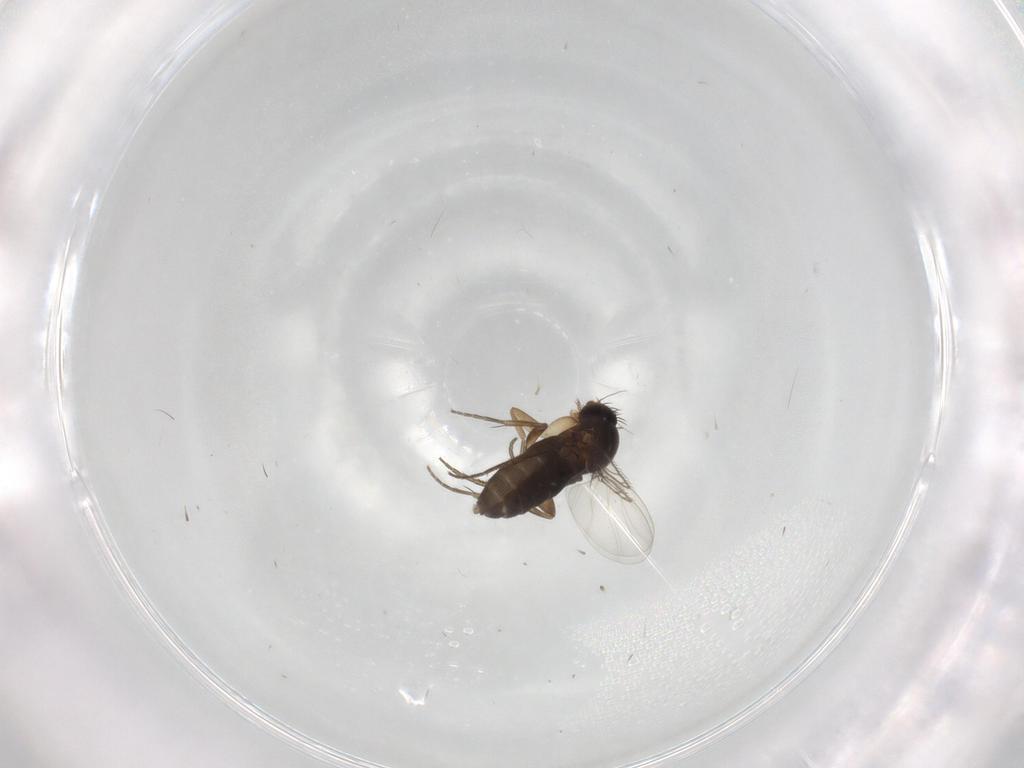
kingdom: Animalia
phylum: Arthropoda
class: Insecta
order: Diptera
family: Phoridae
